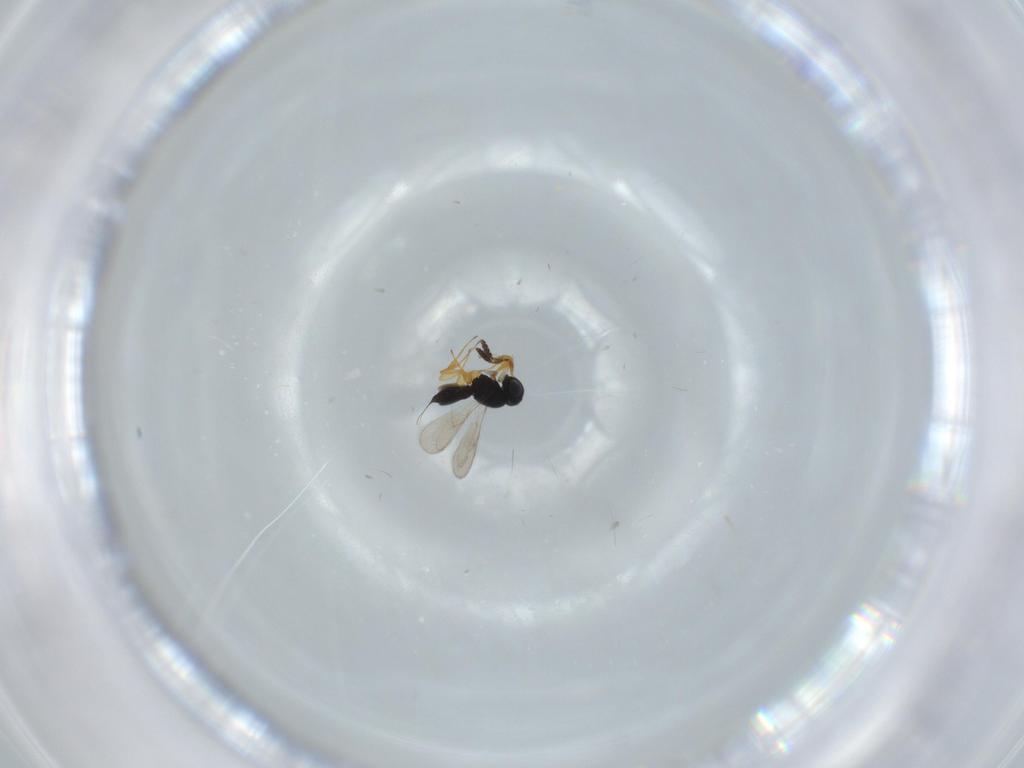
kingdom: Animalia
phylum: Arthropoda
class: Insecta
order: Hymenoptera
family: Scelionidae
